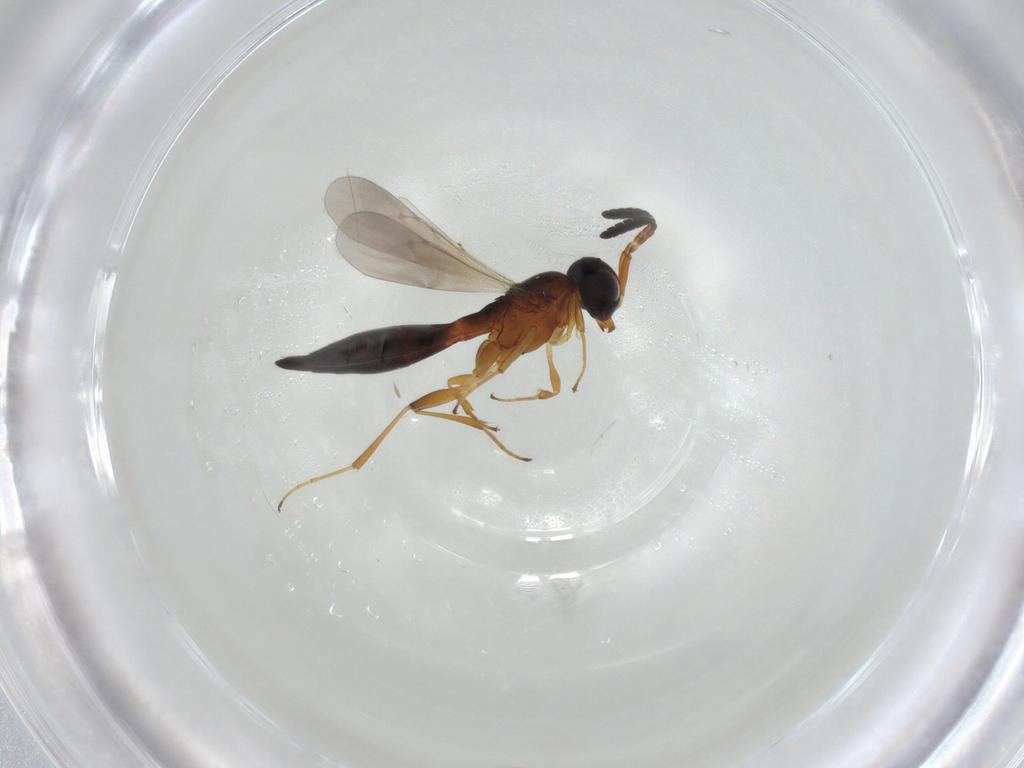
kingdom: Animalia
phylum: Arthropoda
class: Insecta
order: Hymenoptera
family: Scelionidae
